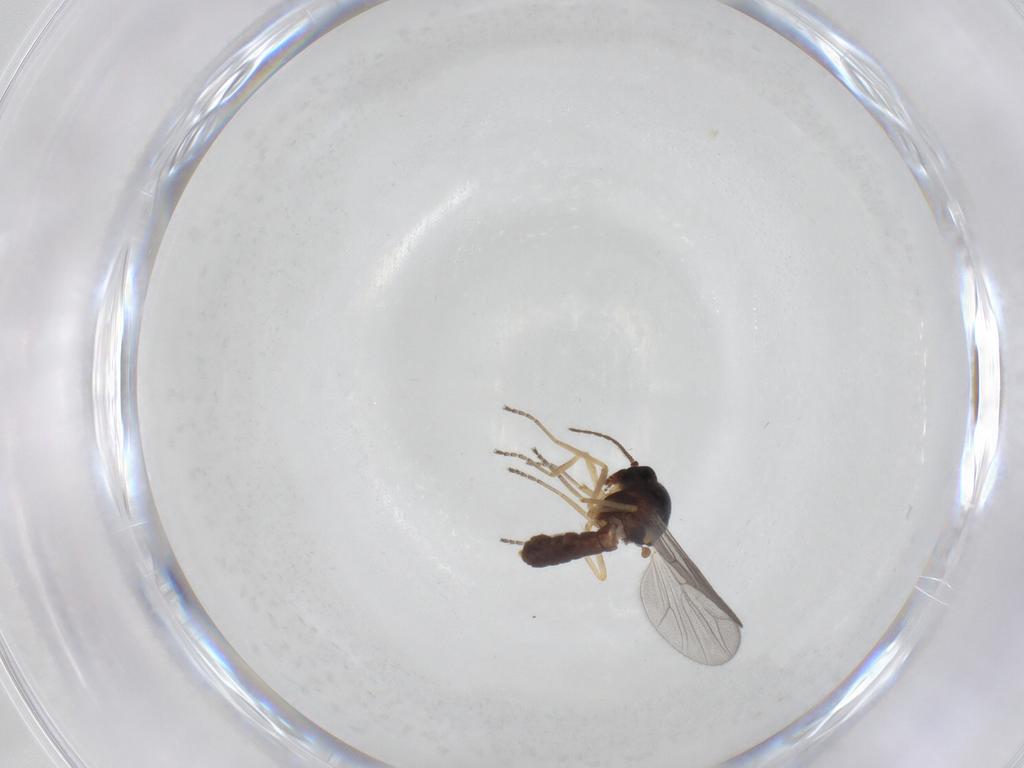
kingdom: Animalia
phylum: Arthropoda
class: Insecta
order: Diptera
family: Ceratopogonidae
